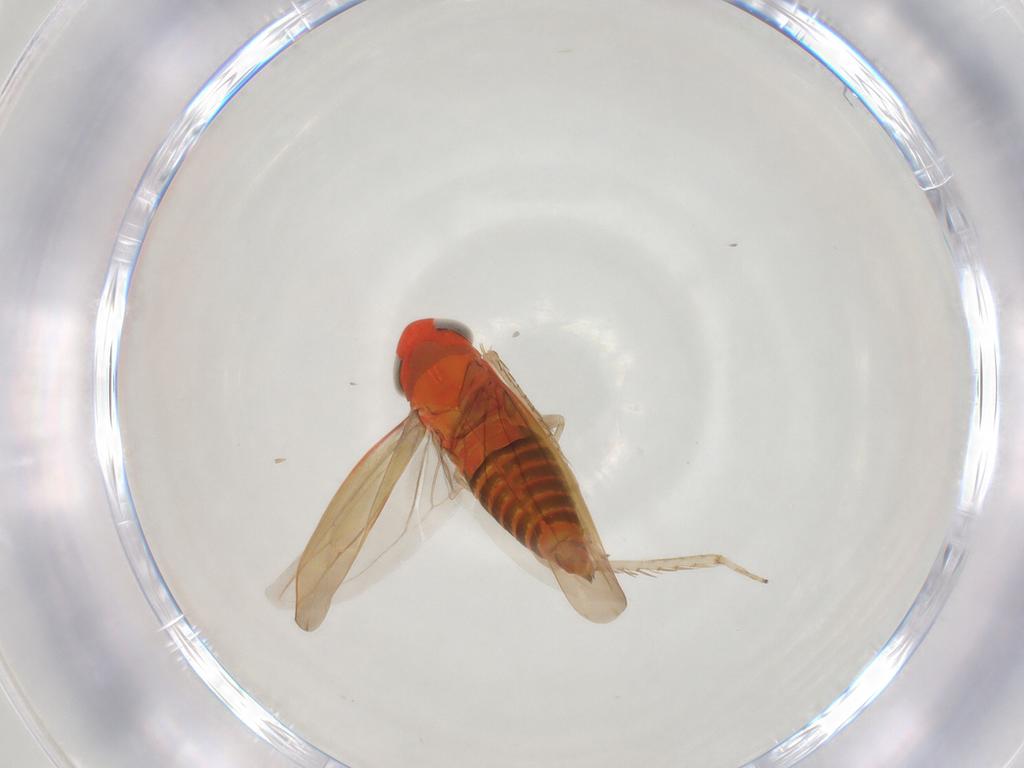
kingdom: Animalia
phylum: Arthropoda
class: Insecta
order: Hemiptera
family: Cicadellidae
